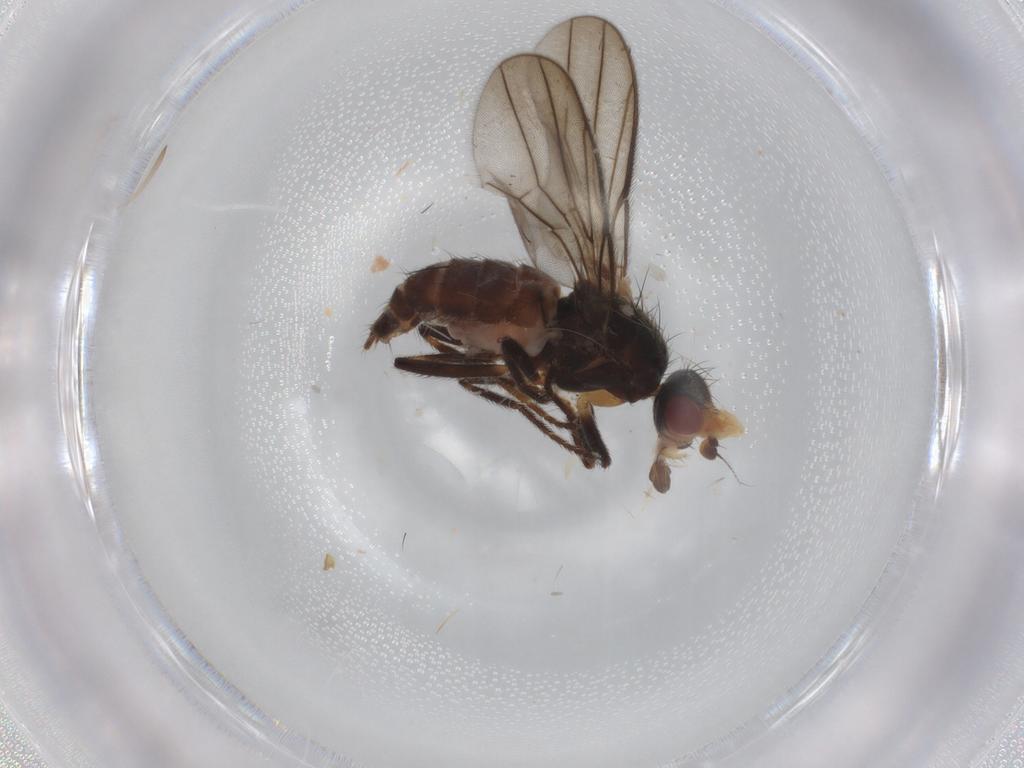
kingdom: Animalia
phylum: Arthropoda
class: Insecta
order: Diptera
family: Chloropidae
